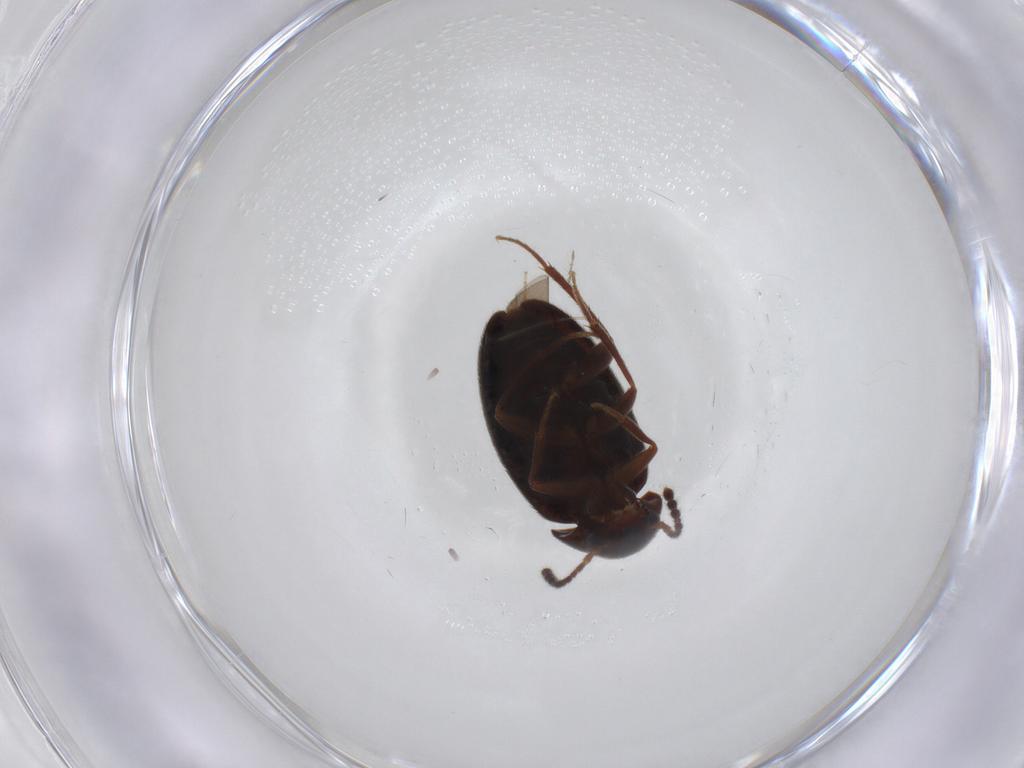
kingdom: Animalia
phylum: Arthropoda
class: Insecta
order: Coleoptera
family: Leiodidae
